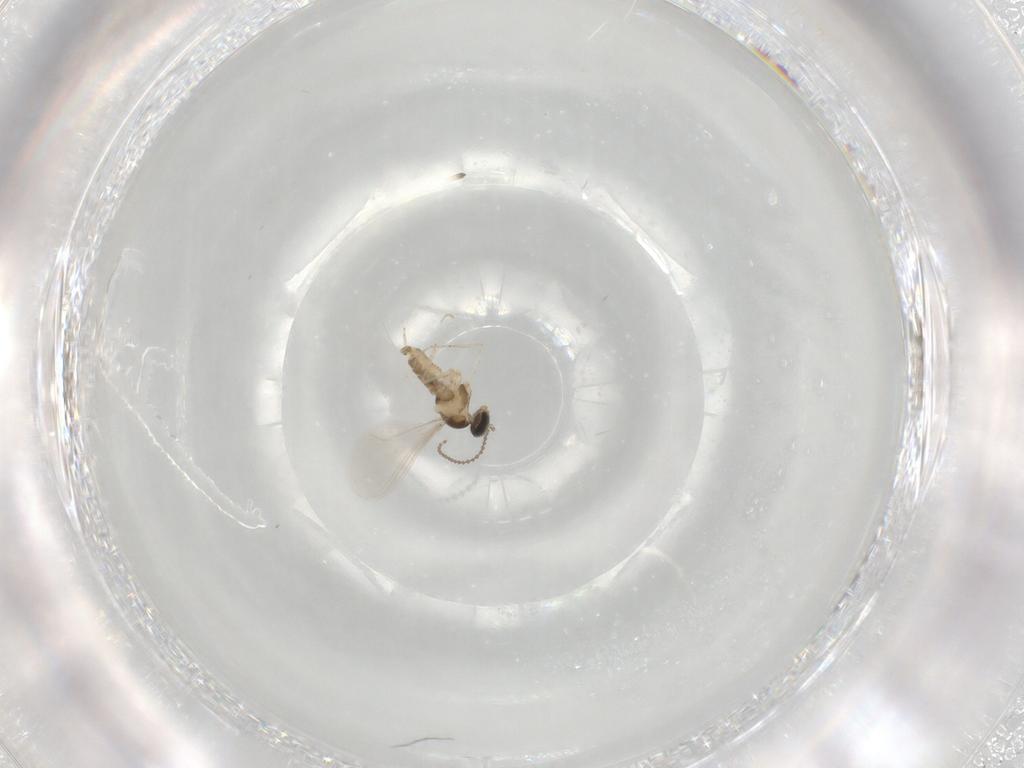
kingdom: Animalia
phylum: Arthropoda
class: Insecta
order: Diptera
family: Cecidomyiidae
